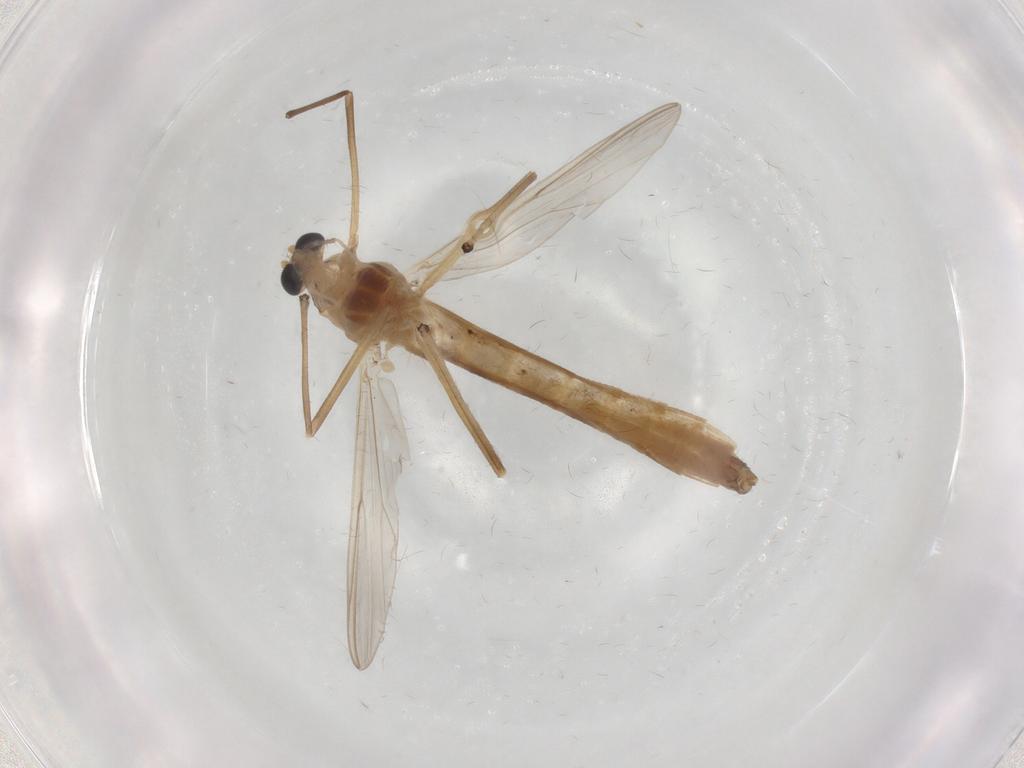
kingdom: Animalia
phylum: Arthropoda
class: Insecta
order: Diptera
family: Chironomidae
